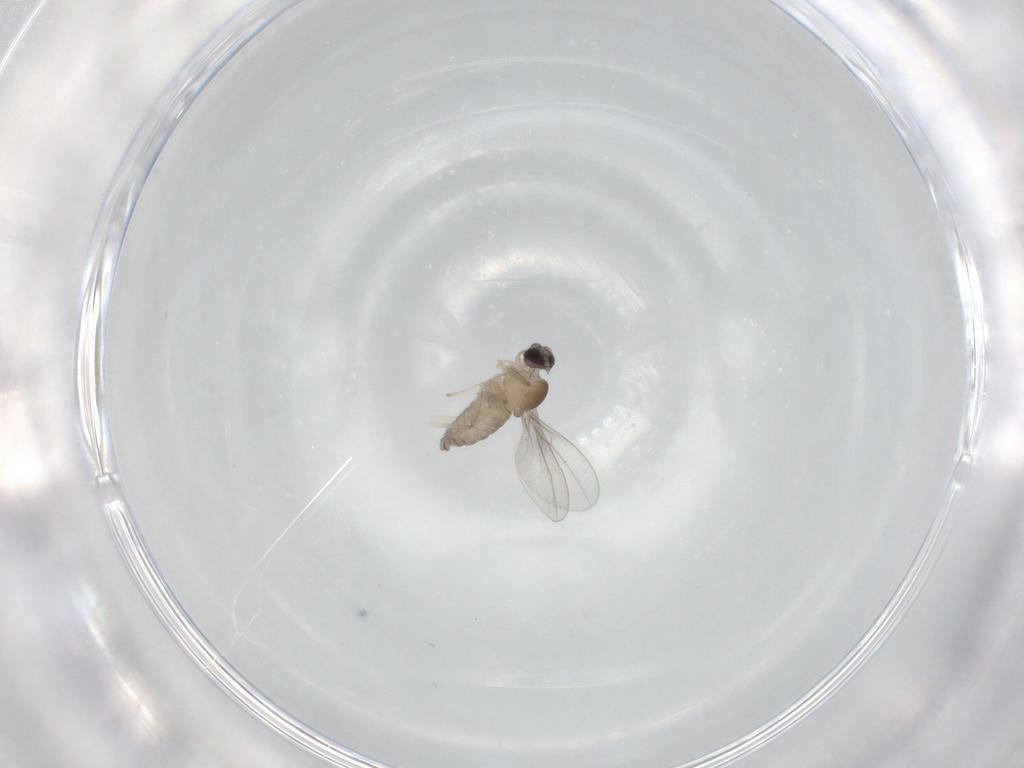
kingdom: Animalia
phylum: Arthropoda
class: Insecta
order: Diptera
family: Cecidomyiidae
